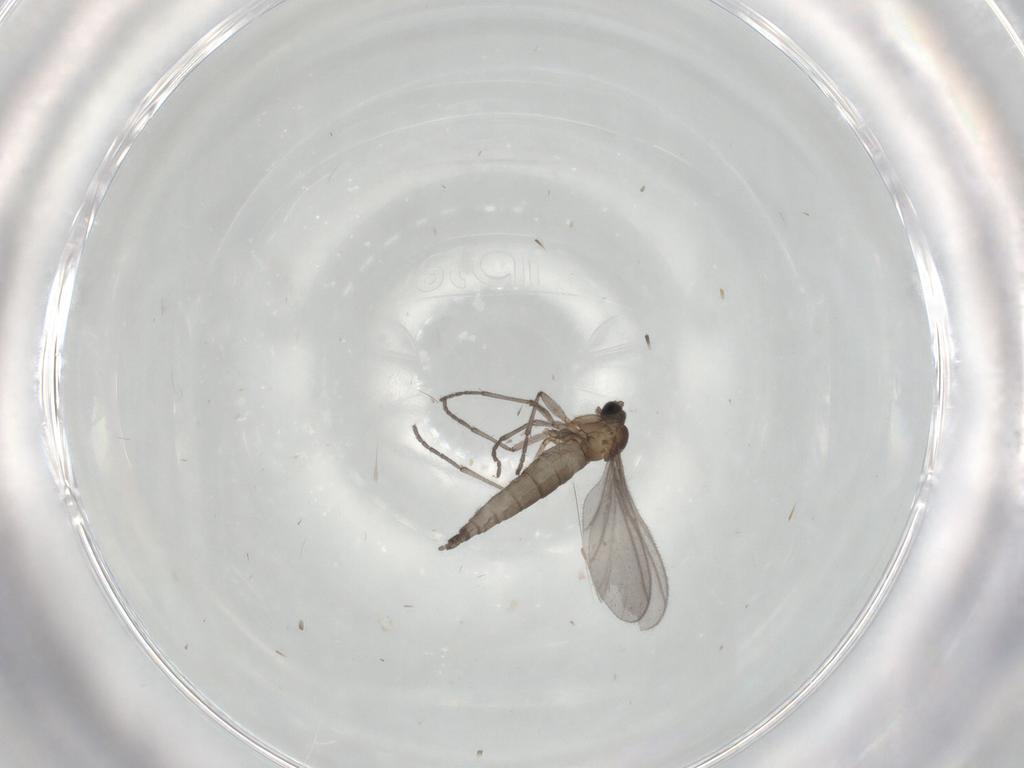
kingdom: Animalia
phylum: Arthropoda
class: Insecta
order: Diptera
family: Sciaridae
